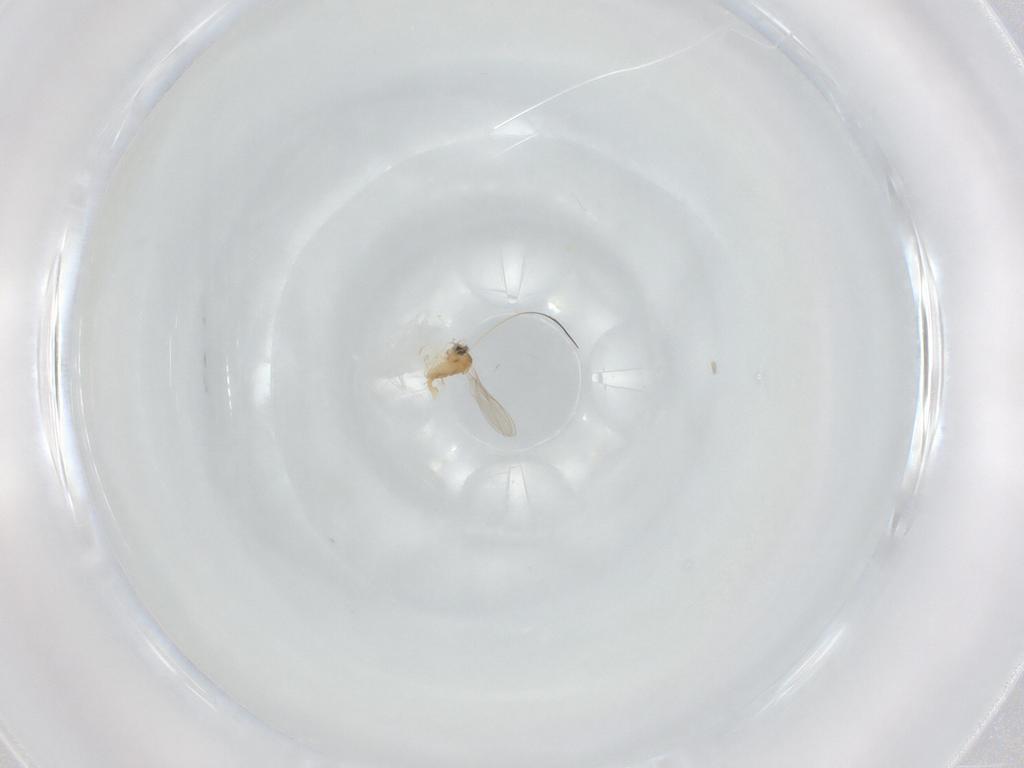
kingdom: Animalia
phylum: Arthropoda
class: Insecta
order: Diptera
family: Cecidomyiidae
